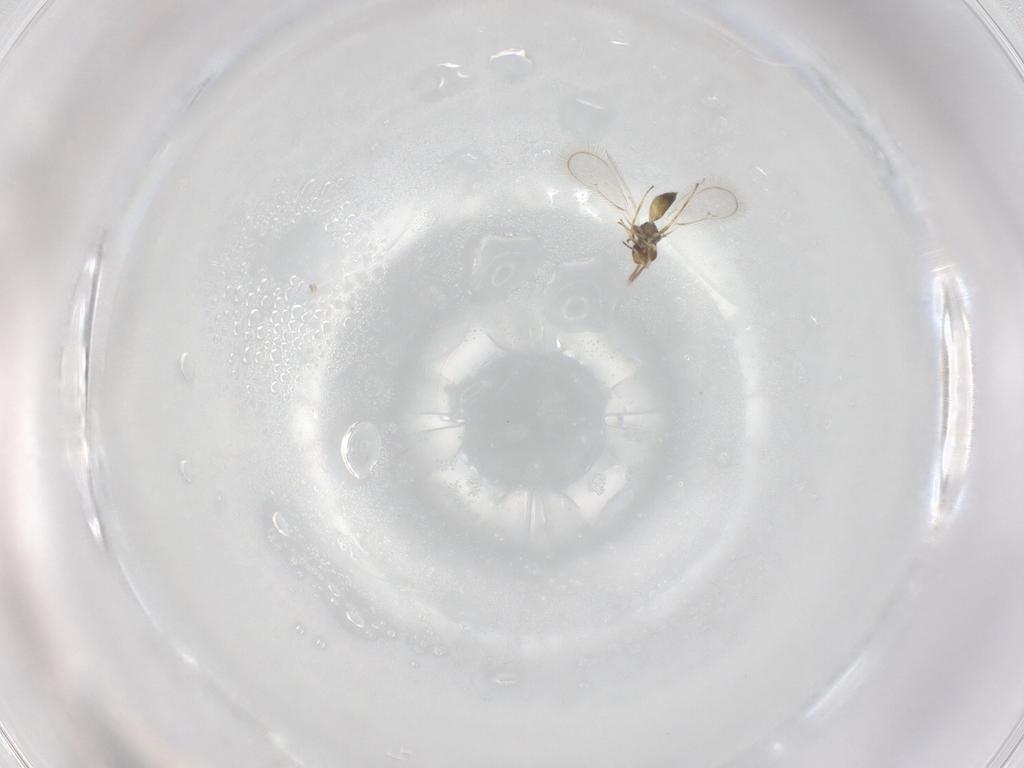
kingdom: Animalia
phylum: Arthropoda
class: Insecta
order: Hymenoptera
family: Eulophidae
